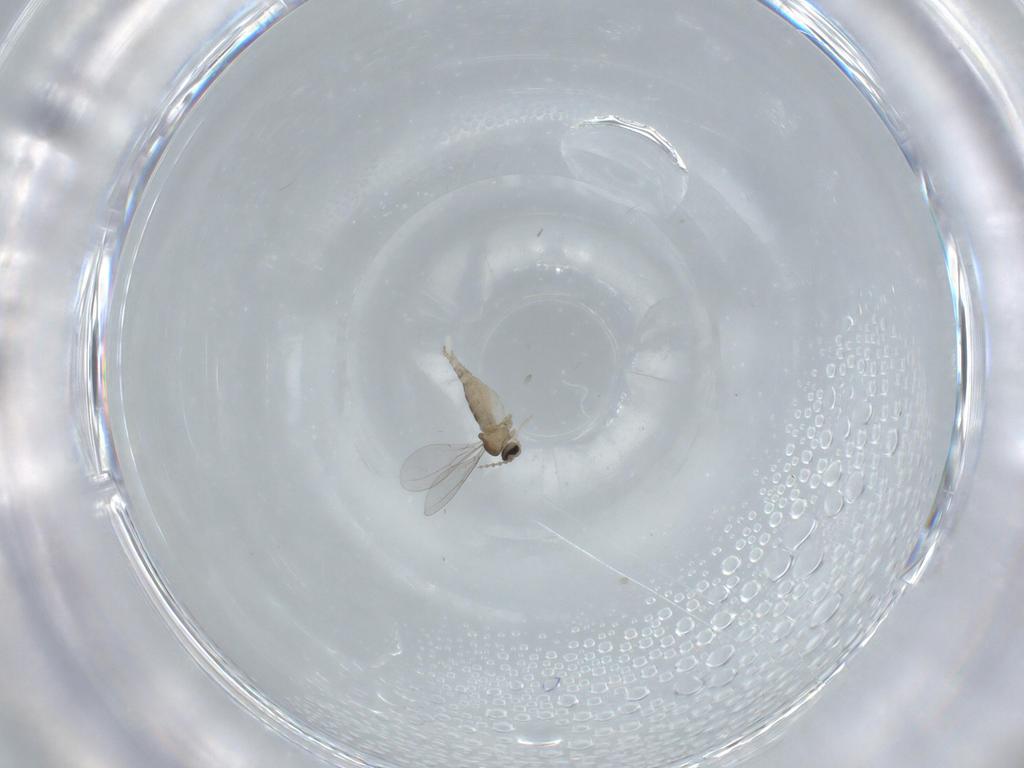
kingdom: Animalia
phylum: Arthropoda
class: Insecta
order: Diptera
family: Cecidomyiidae
